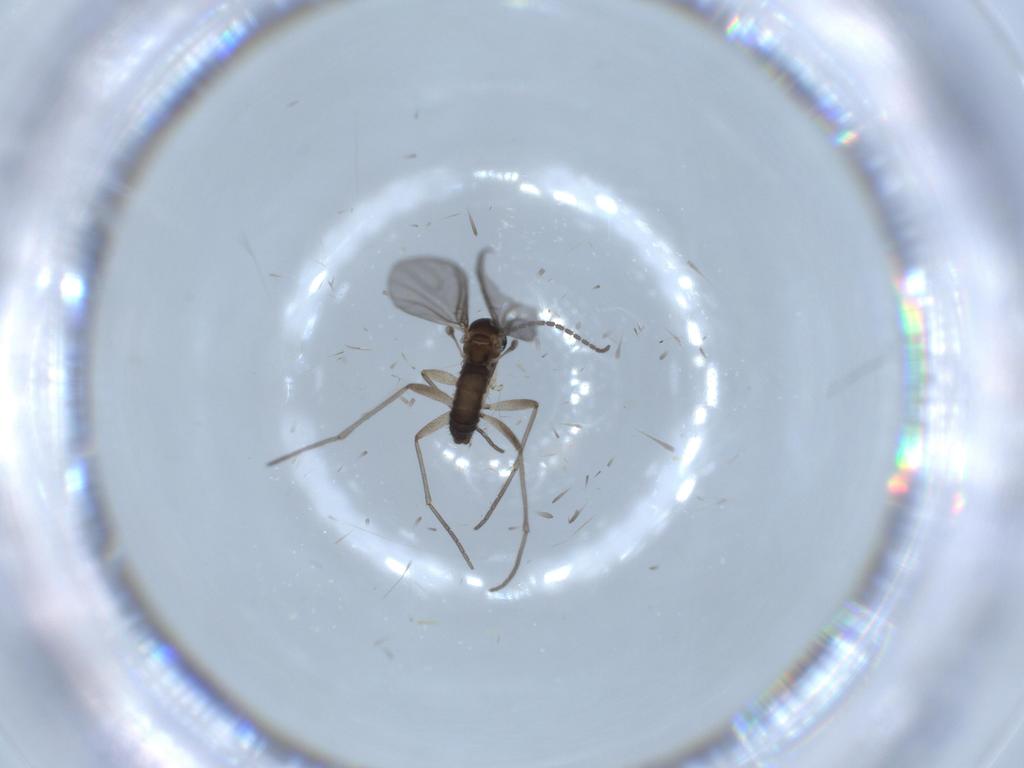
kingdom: Animalia
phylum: Arthropoda
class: Insecta
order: Diptera
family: Sciaridae
